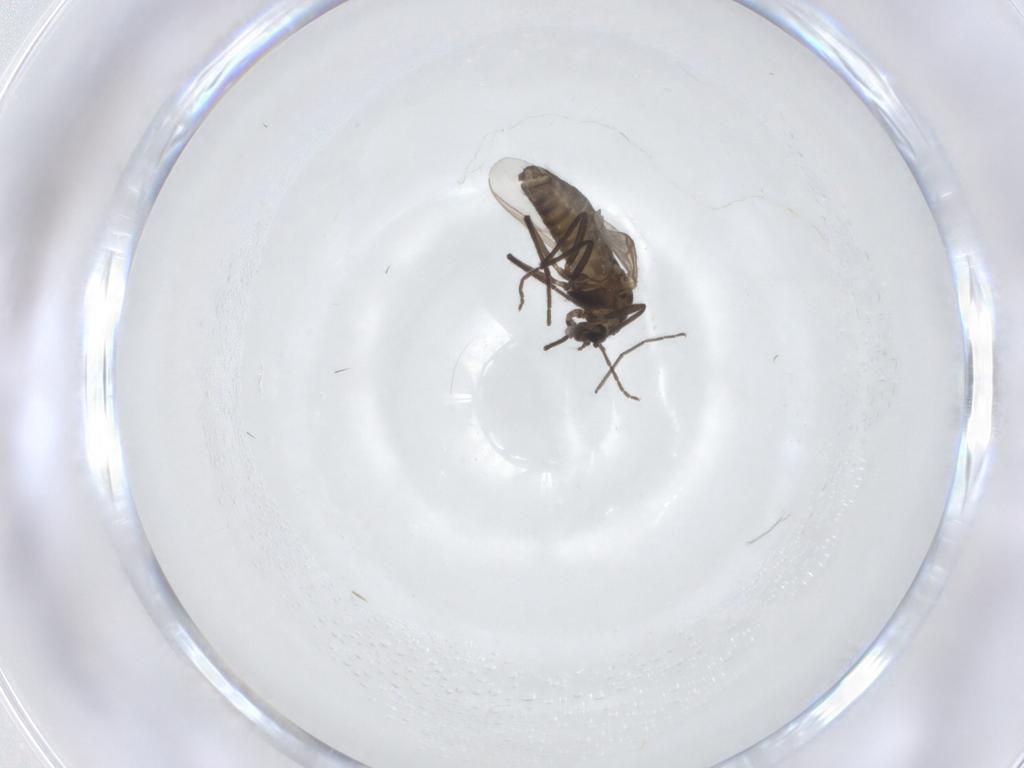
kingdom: Animalia
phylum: Arthropoda
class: Insecta
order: Diptera
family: Chironomidae
